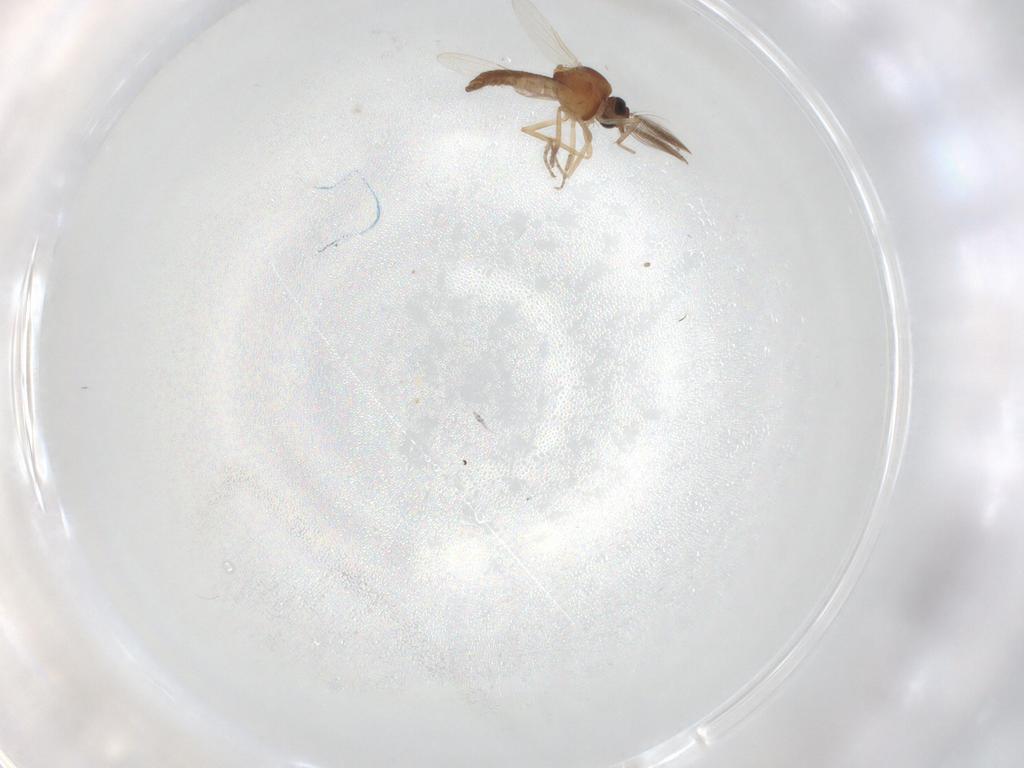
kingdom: Animalia
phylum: Arthropoda
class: Insecta
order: Diptera
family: Ceratopogonidae
